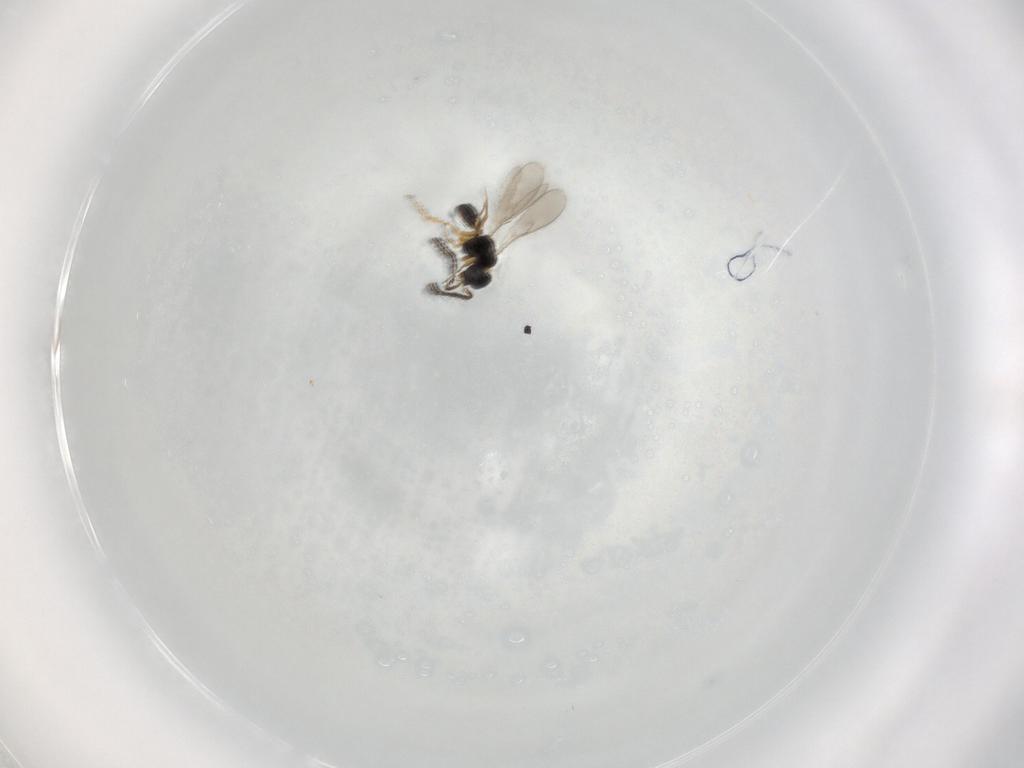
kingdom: Animalia
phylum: Arthropoda
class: Insecta
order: Hymenoptera
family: Scelionidae
